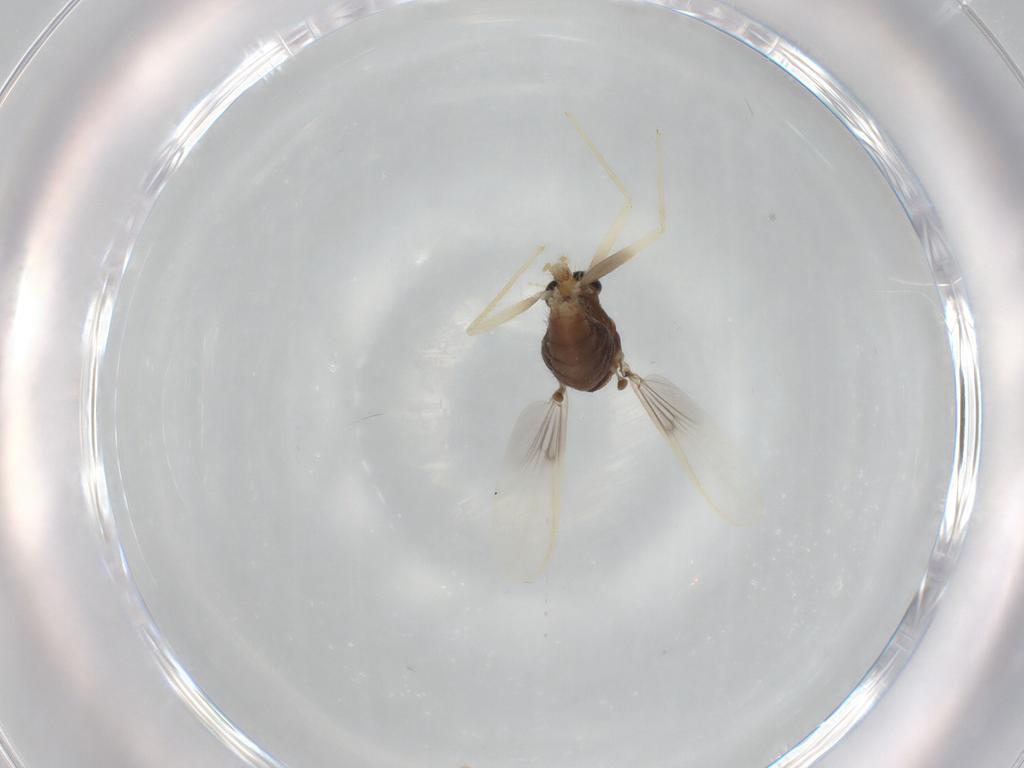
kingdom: Animalia
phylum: Arthropoda
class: Insecta
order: Diptera
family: Chironomidae
